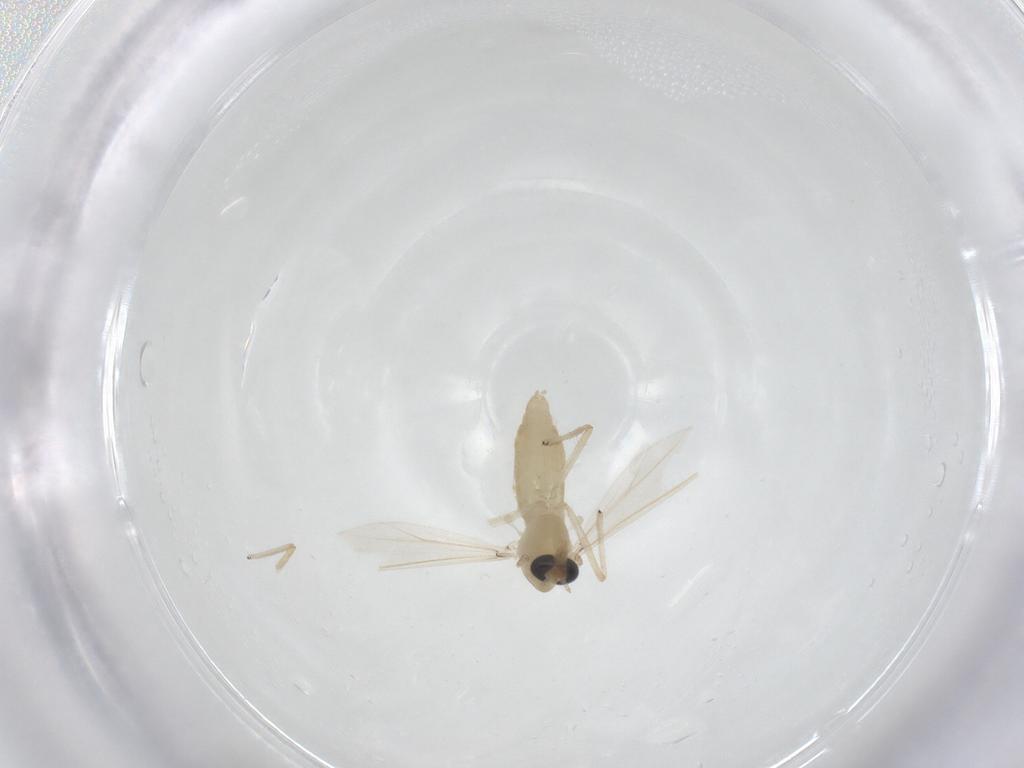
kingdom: Animalia
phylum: Arthropoda
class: Insecta
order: Diptera
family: Chironomidae
